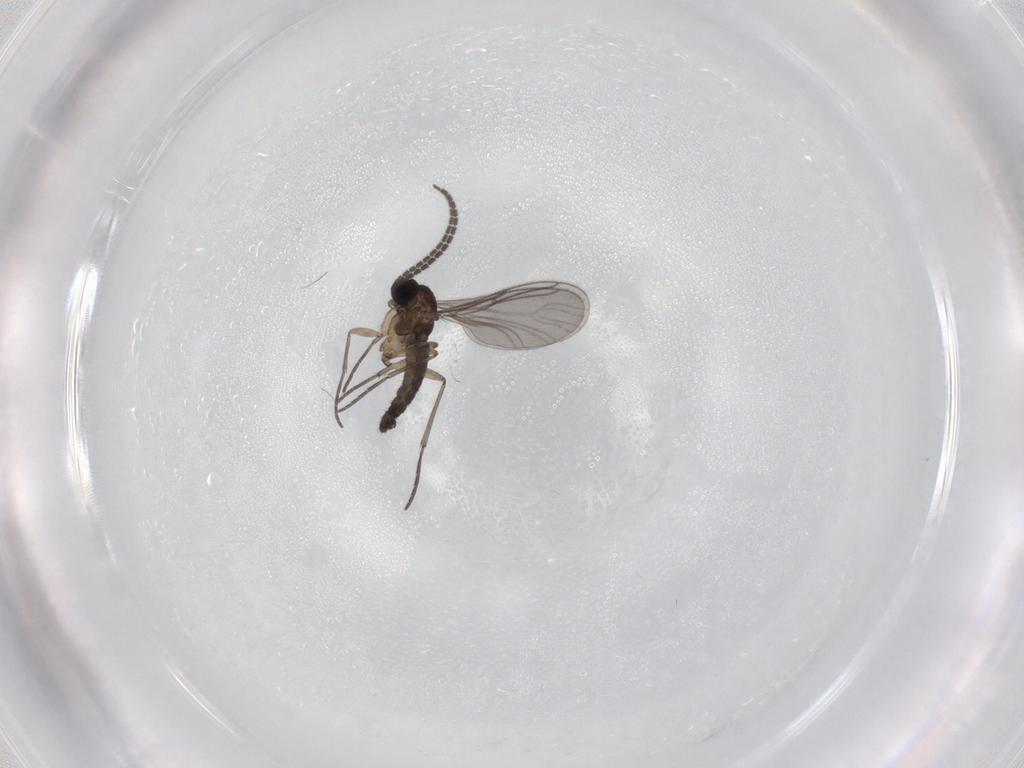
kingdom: Animalia
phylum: Arthropoda
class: Insecta
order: Diptera
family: Sciaridae
